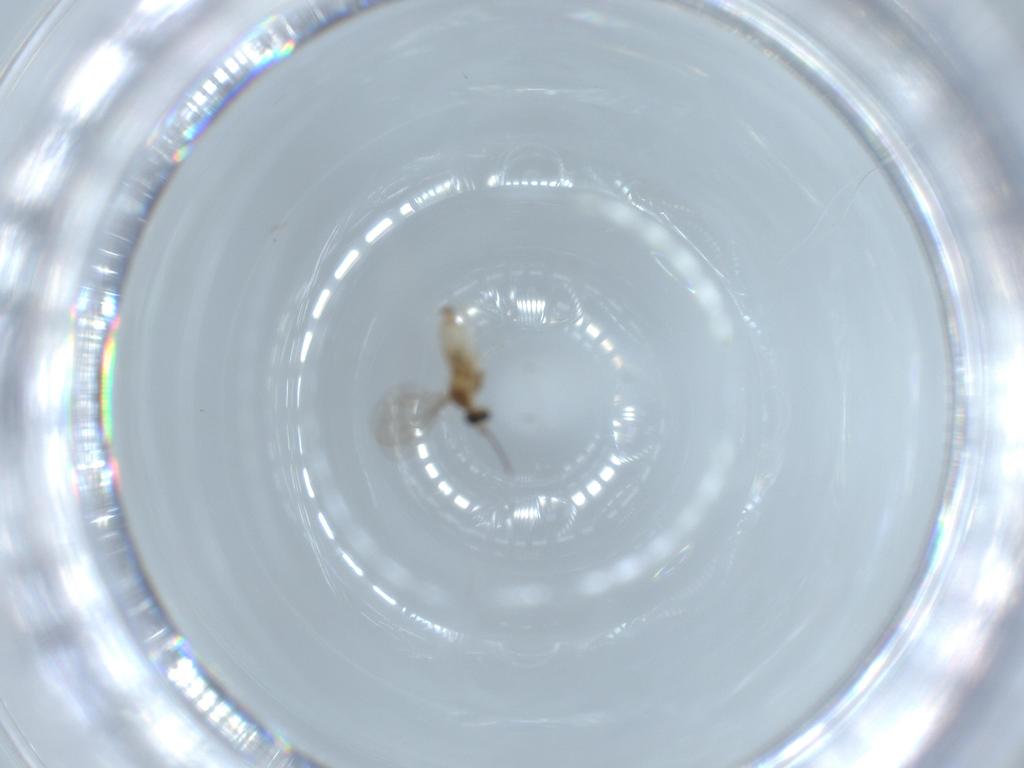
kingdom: Animalia
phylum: Arthropoda
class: Insecta
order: Diptera
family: Cecidomyiidae
